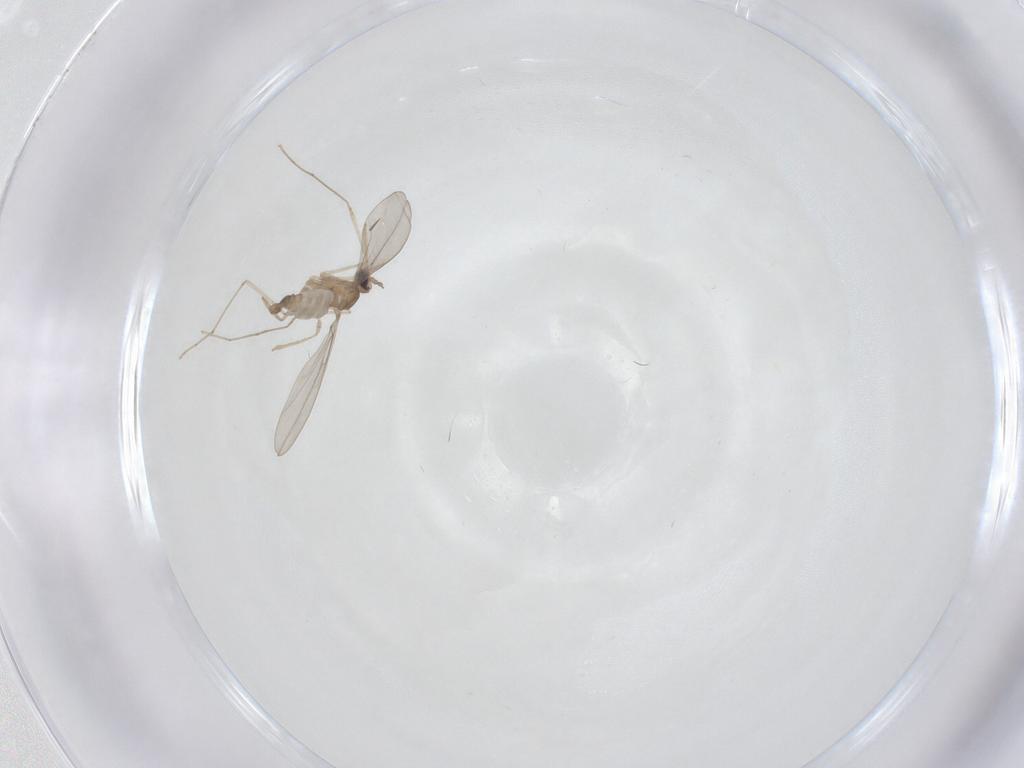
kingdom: Animalia
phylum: Arthropoda
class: Insecta
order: Diptera
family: Cecidomyiidae
